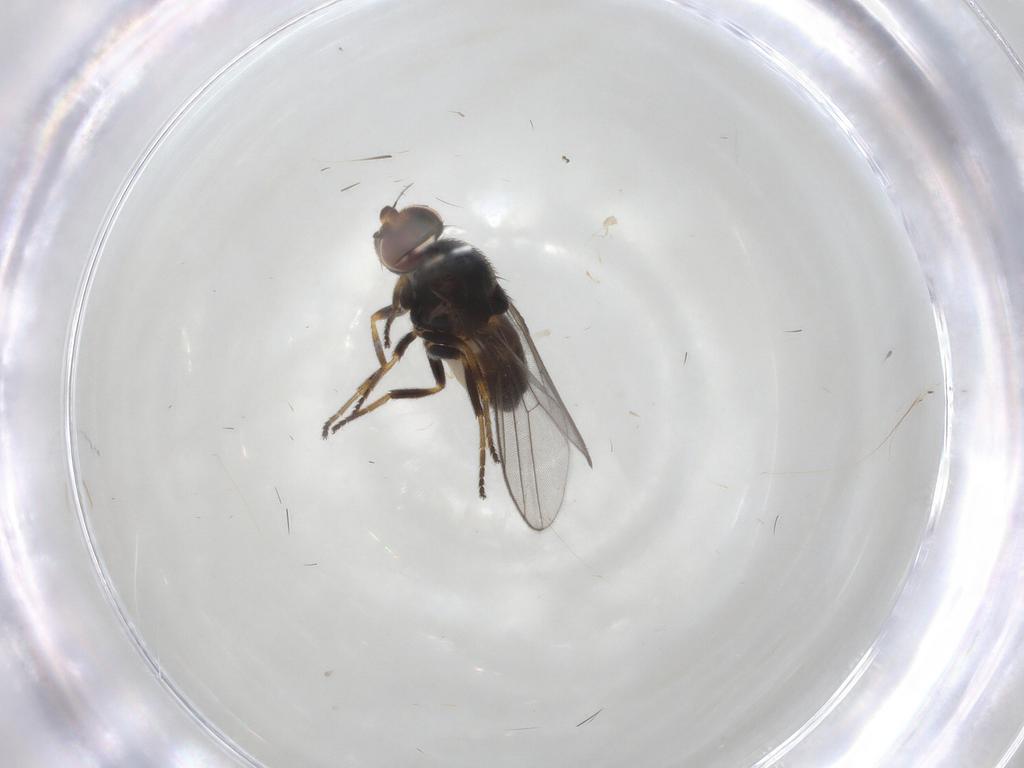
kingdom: Animalia
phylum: Arthropoda
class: Insecta
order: Diptera
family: Chloropidae
